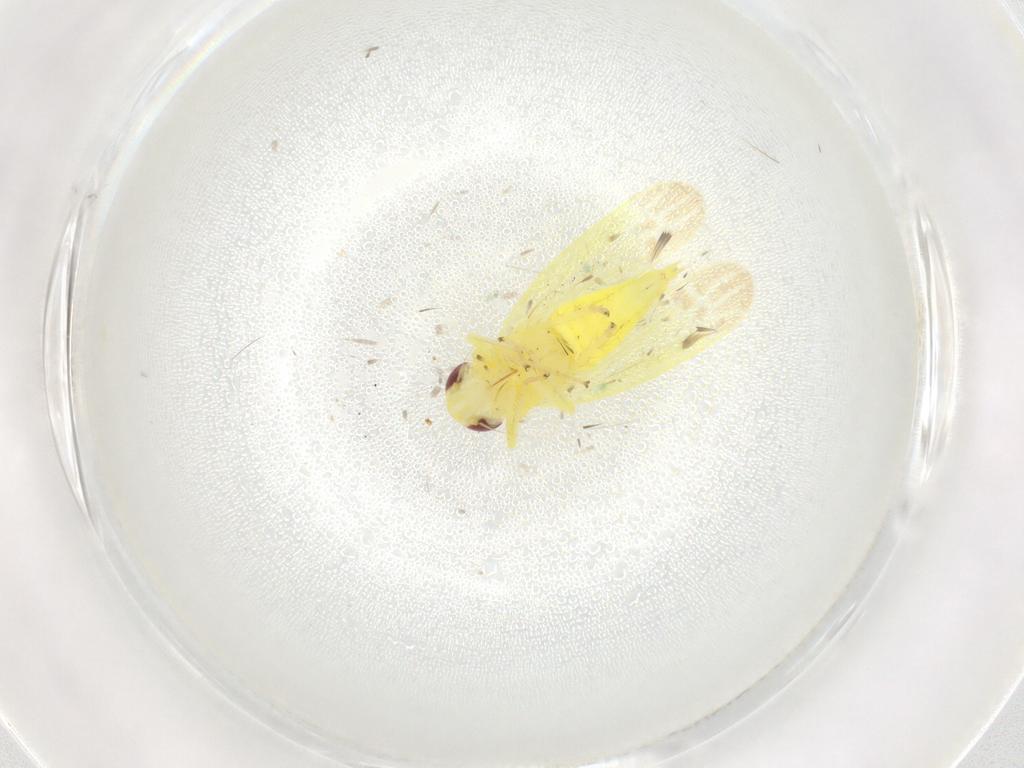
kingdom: Animalia
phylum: Arthropoda
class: Insecta
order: Hemiptera
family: Cicadellidae
